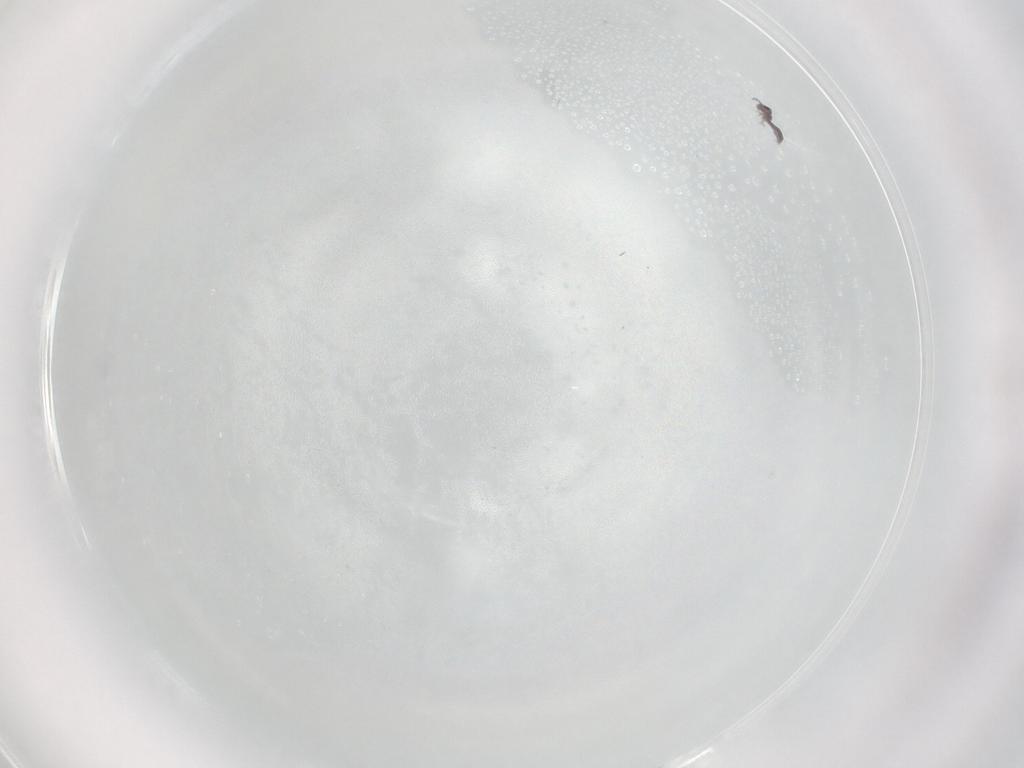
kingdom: Animalia
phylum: Arthropoda
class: Collembola
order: Poduromorpha
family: Hypogastruridae
